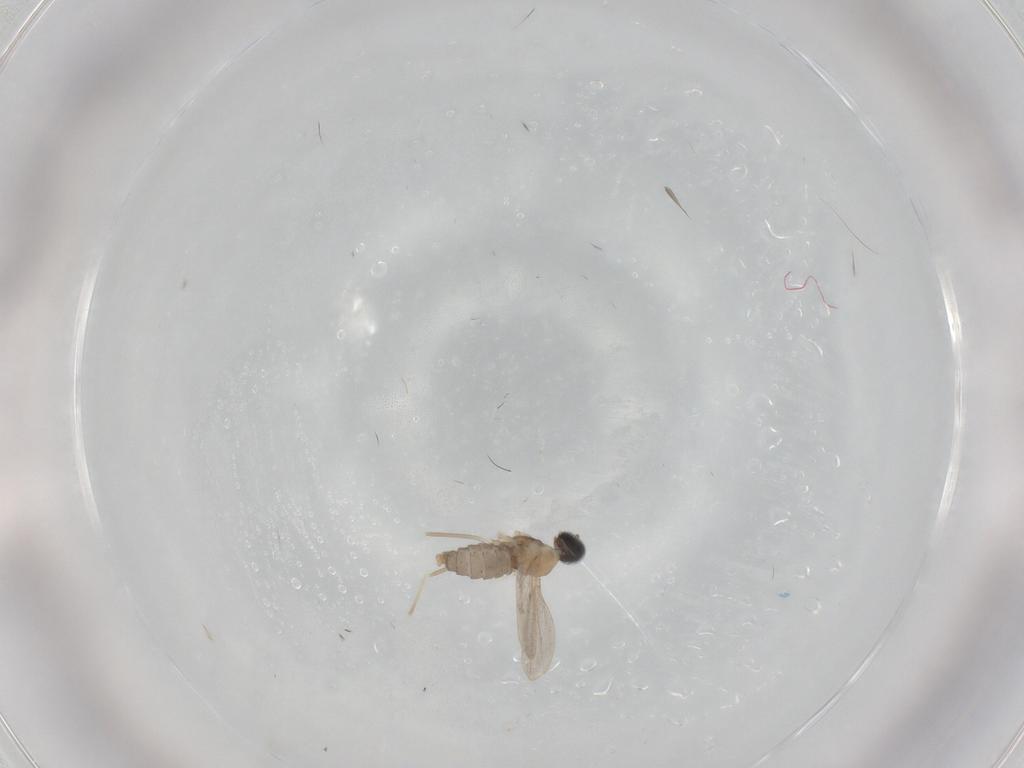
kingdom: Animalia
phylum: Arthropoda
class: Insecta
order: Diptera
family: Cecidomyiidae
